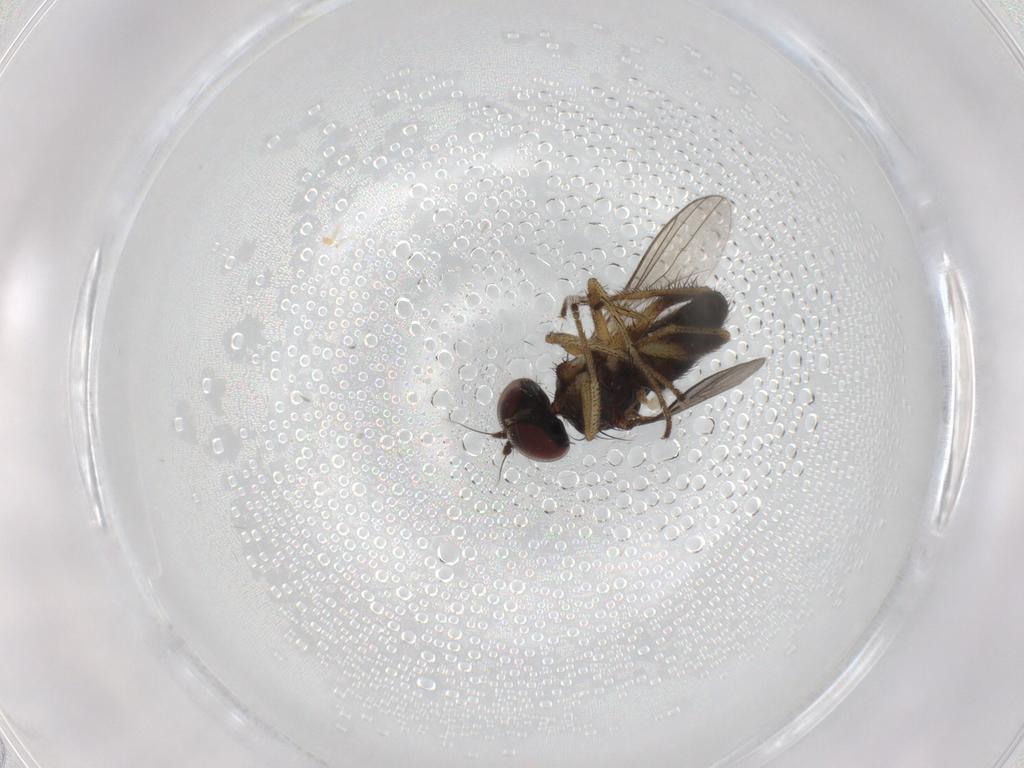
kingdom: Animalia
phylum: Arthropoda
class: Insecta
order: Diptera
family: Dolichopodidae
